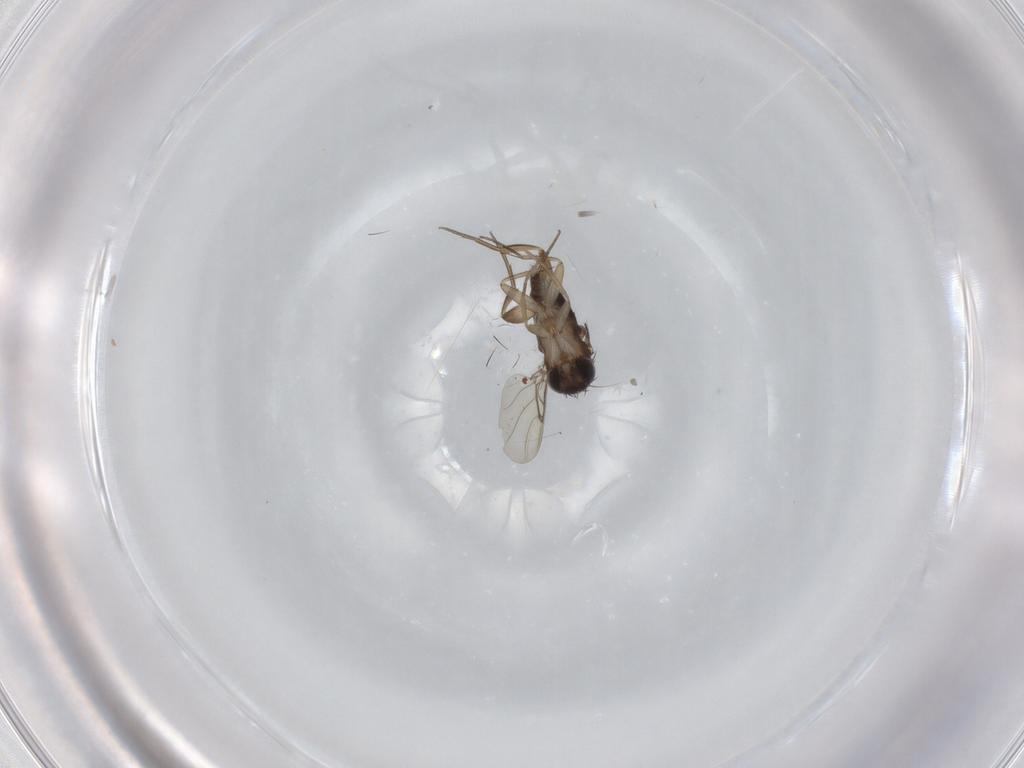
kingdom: Animalia
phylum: Arthropoda
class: Insecta
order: Diptera
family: Phoridae
